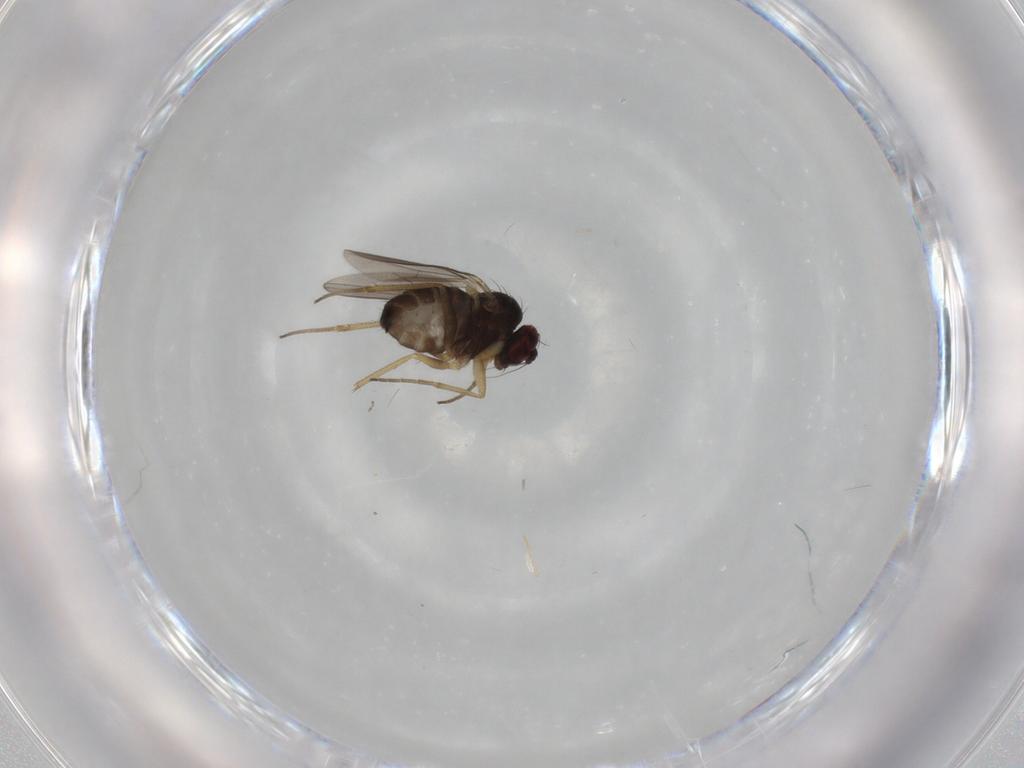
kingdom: Animalia
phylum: Arthropoda
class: Insecta
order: Diptera
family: Dolichopodidae
